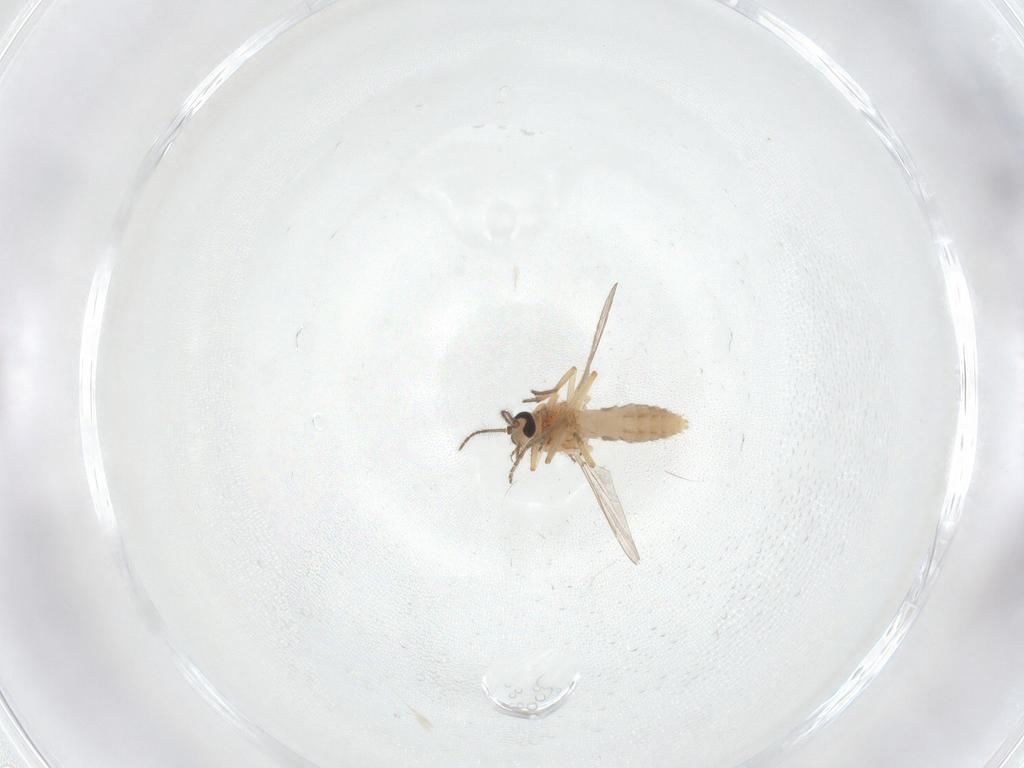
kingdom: Animalia
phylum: Arthropoda
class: Insecta
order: Diptera
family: Ceratopogonidae
